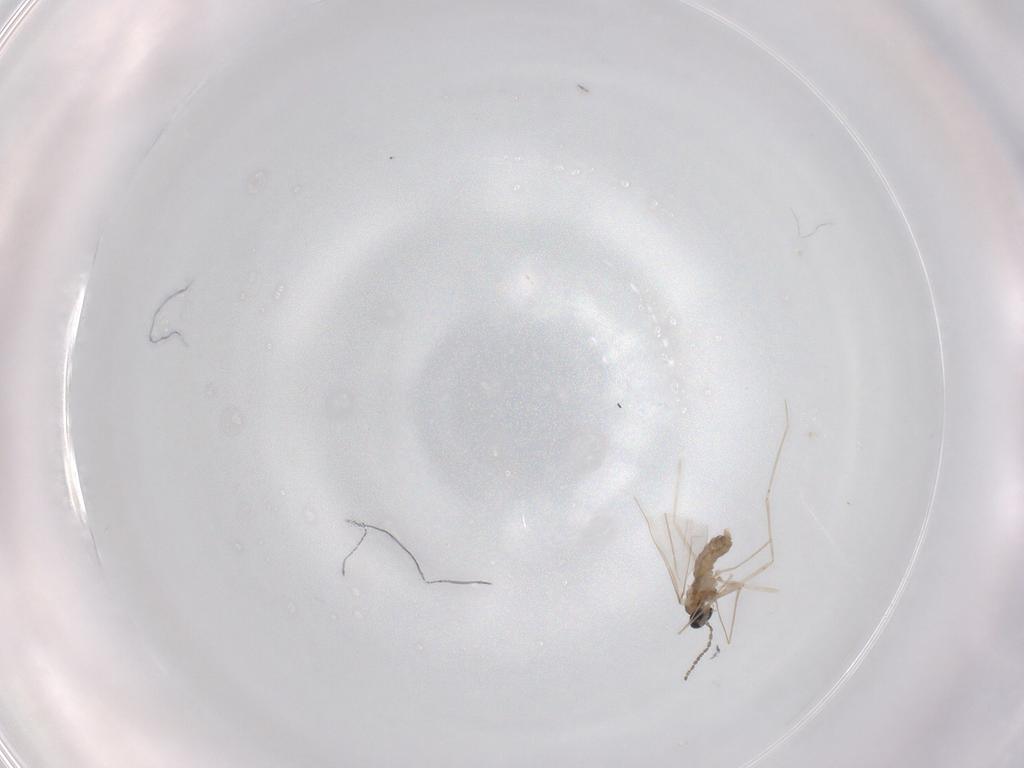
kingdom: Animalia
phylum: Arthropoda
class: Insecta
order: Diptera
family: Cecidomyiidae
